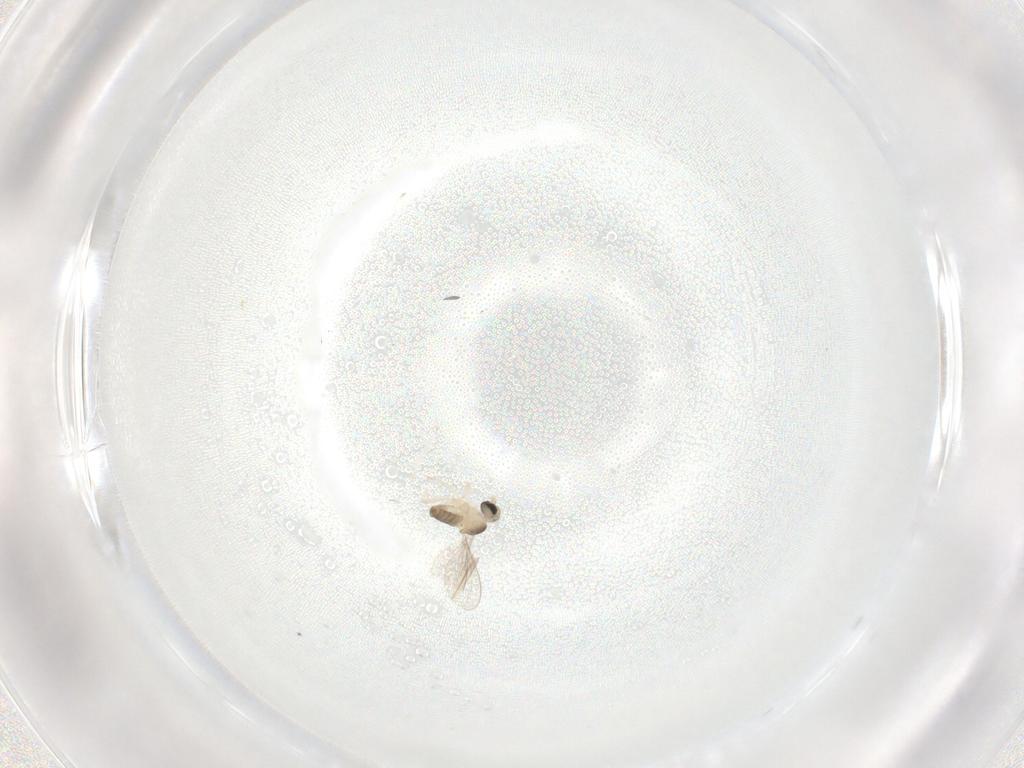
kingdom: Animalia
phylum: Arthropoda
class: Insecta
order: Diptera
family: Cecidomyiidae
